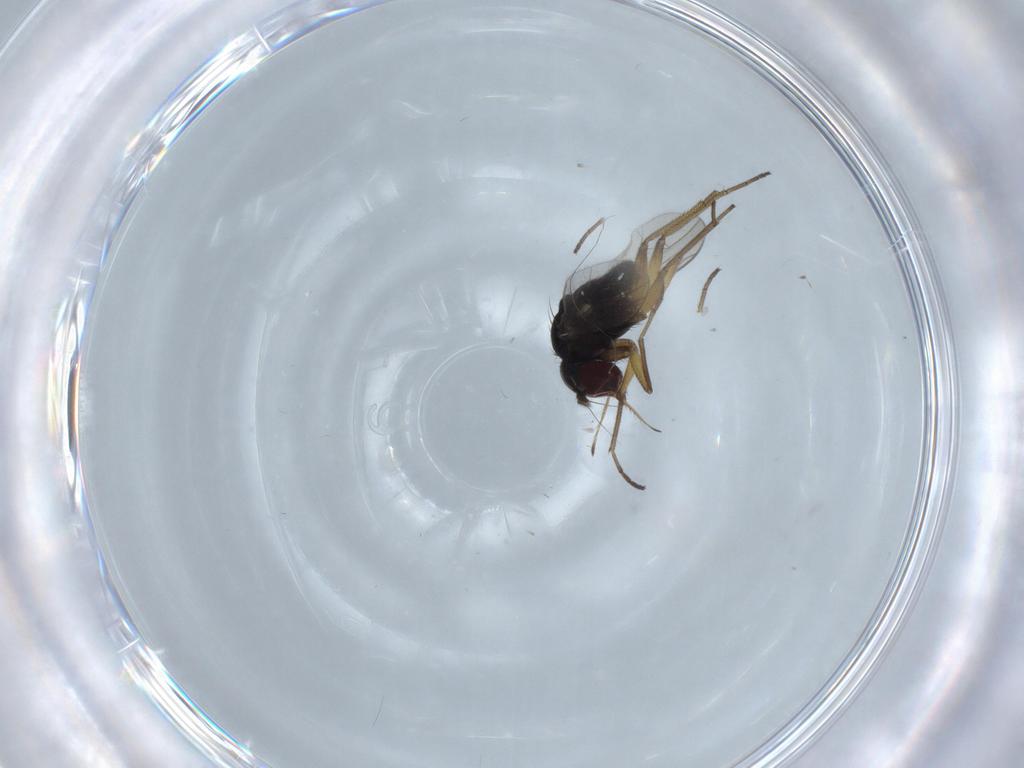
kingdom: Animalia
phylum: Arthropoda
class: Insecta
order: Diptera
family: Dolichopodidae
